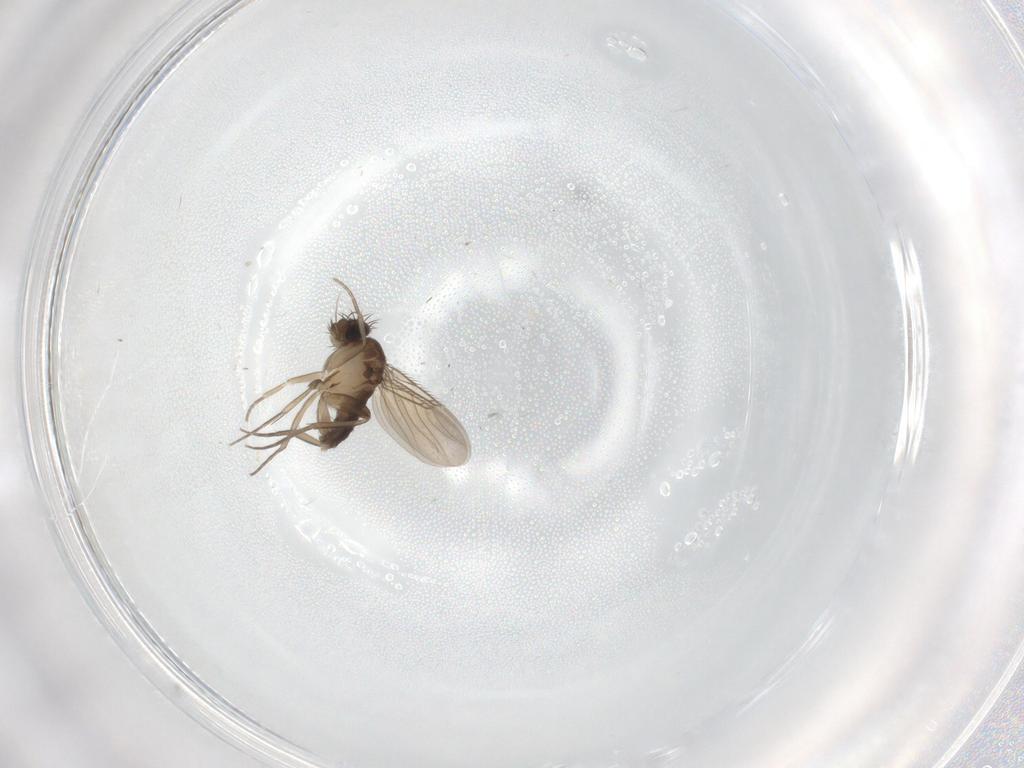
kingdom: Animalia
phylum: Arthropoda
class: Insecta
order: Diptera
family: Phoridae
